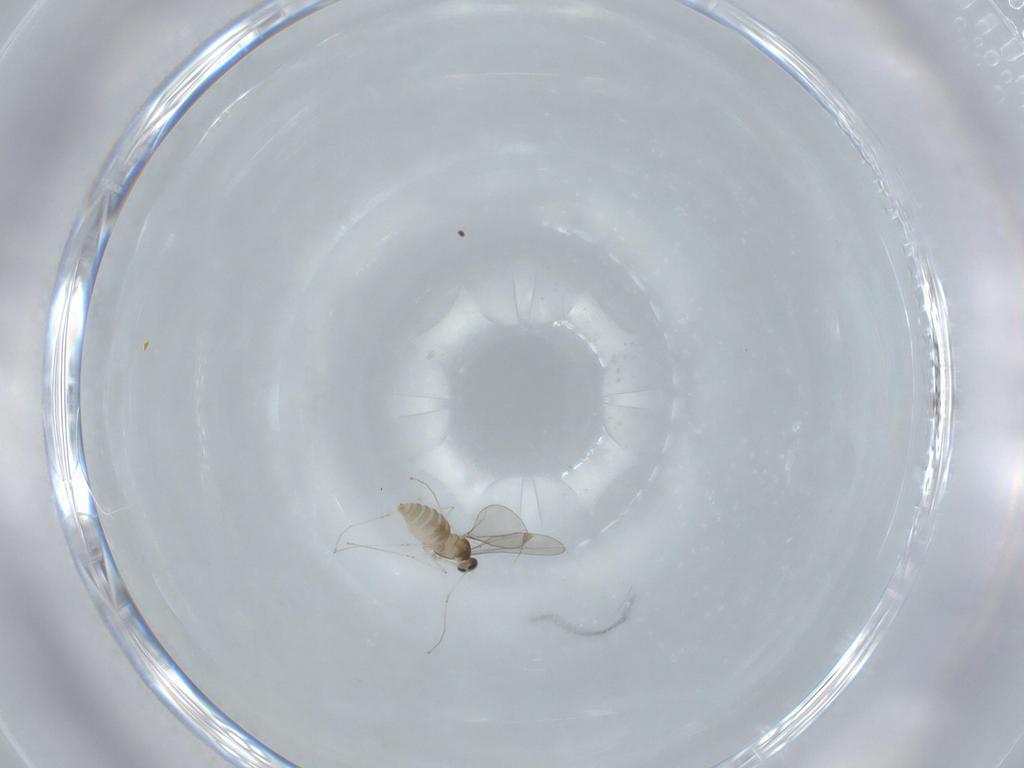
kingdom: Animalia
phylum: Arthropoda
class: Insecta
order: Diptera
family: Cecidomyiidae
